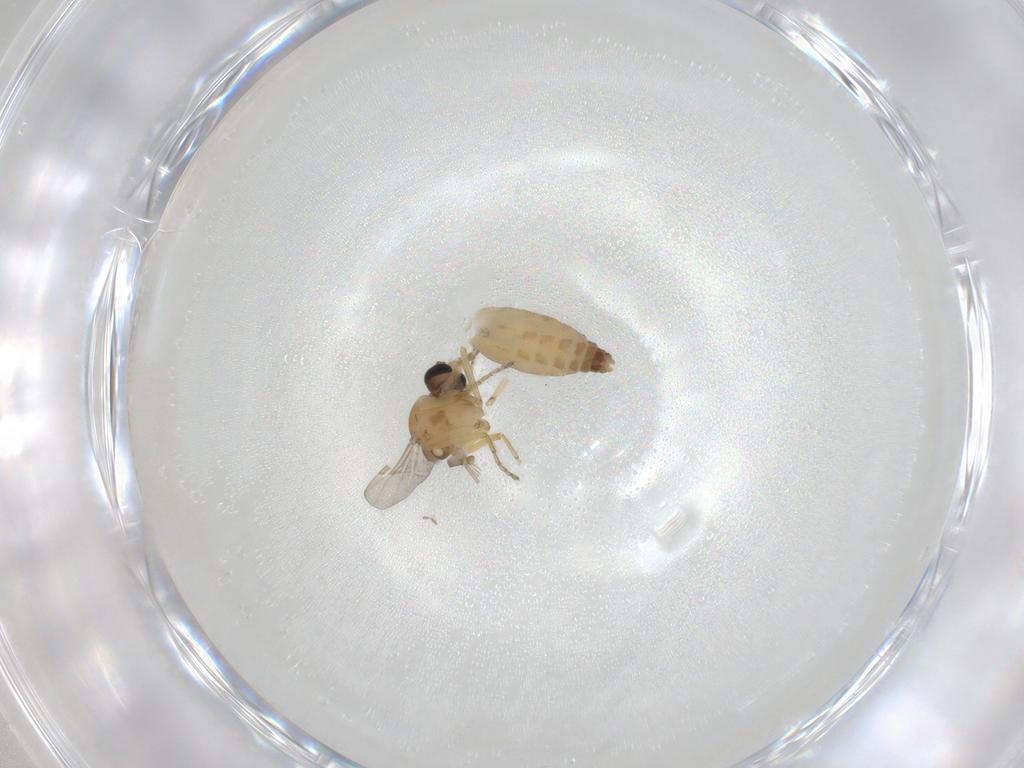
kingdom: Animalia
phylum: Arthropoda
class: Insecta
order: Diptera
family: Ceratopogonidae
